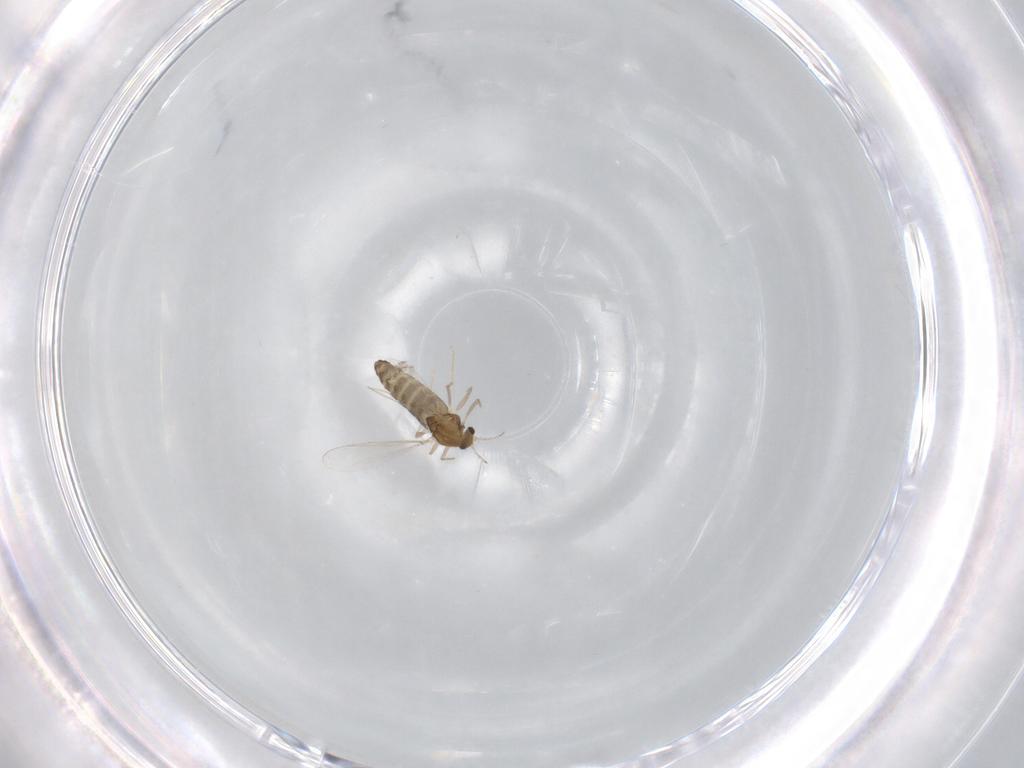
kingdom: Animalia
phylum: Arthropoda
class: Insecta
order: Diptera
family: Chironomidae
